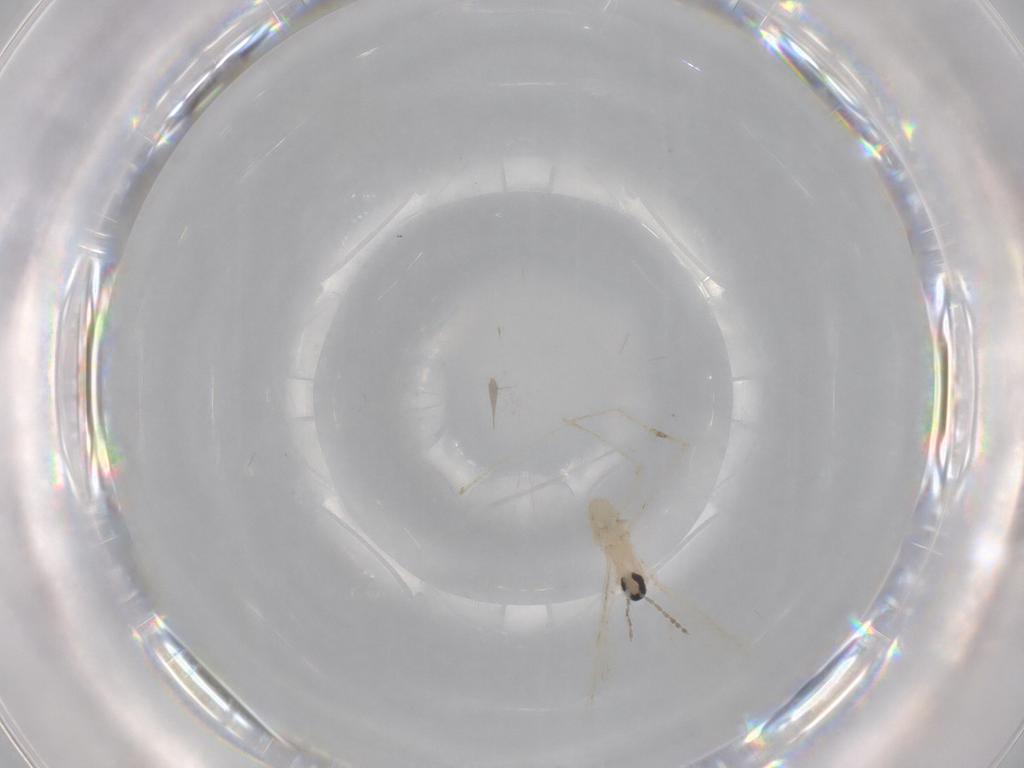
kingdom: Animalia
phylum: Arthropoda
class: Insecta
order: Diptera
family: Cecidomyiidae
